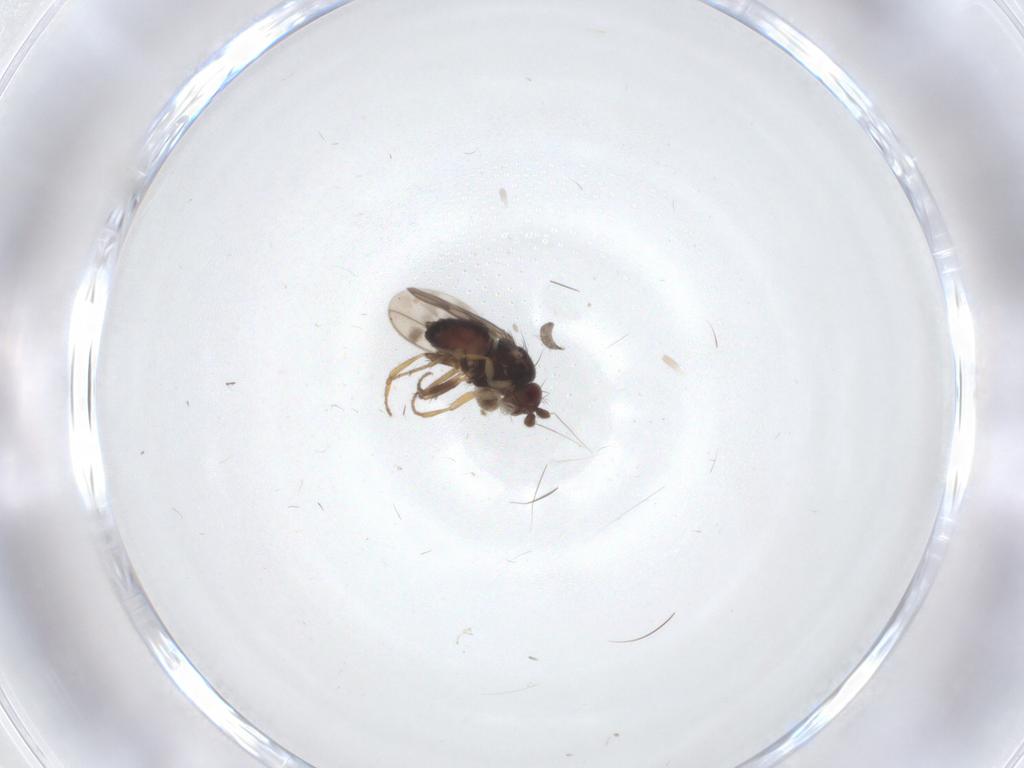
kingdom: Animalia
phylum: Arthropoda
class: Insecta
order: Diptera
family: Sphaeroceridae
